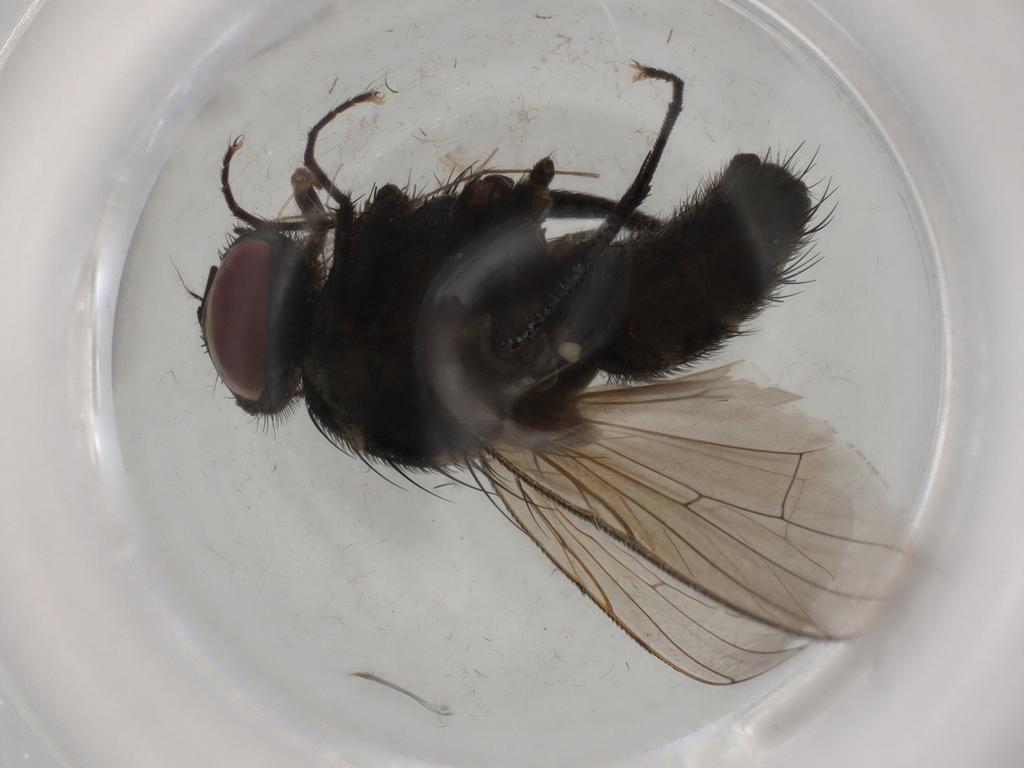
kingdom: Animalia
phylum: Arthropoda
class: Insecta
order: Diptera
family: Muscidae
